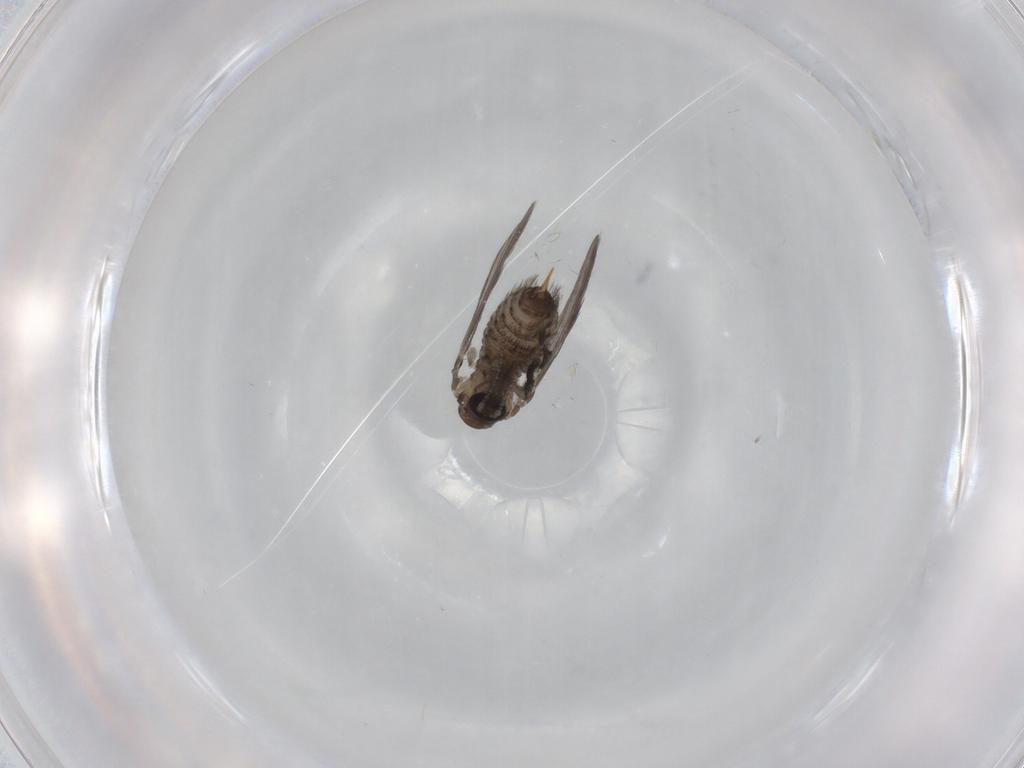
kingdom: Animalia
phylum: Arthropoda
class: Insecta
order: Diptera
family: Psychodidae
